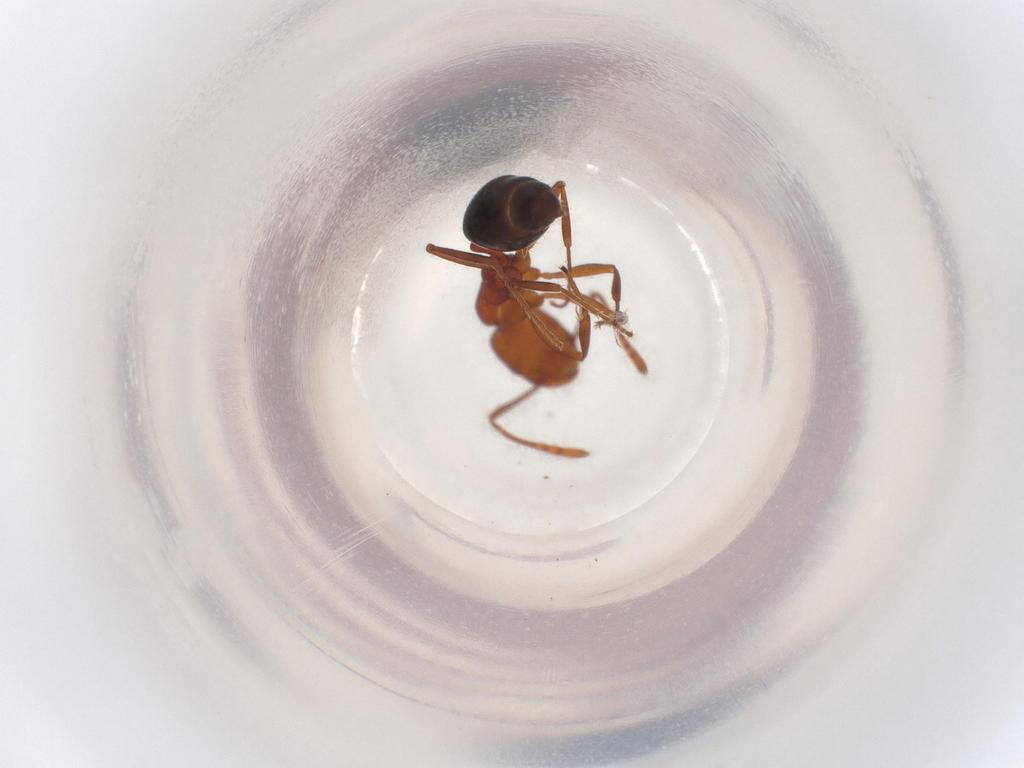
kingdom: Animalia
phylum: Arthropoda
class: Insecta
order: Hymenoptera
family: Formicidae
